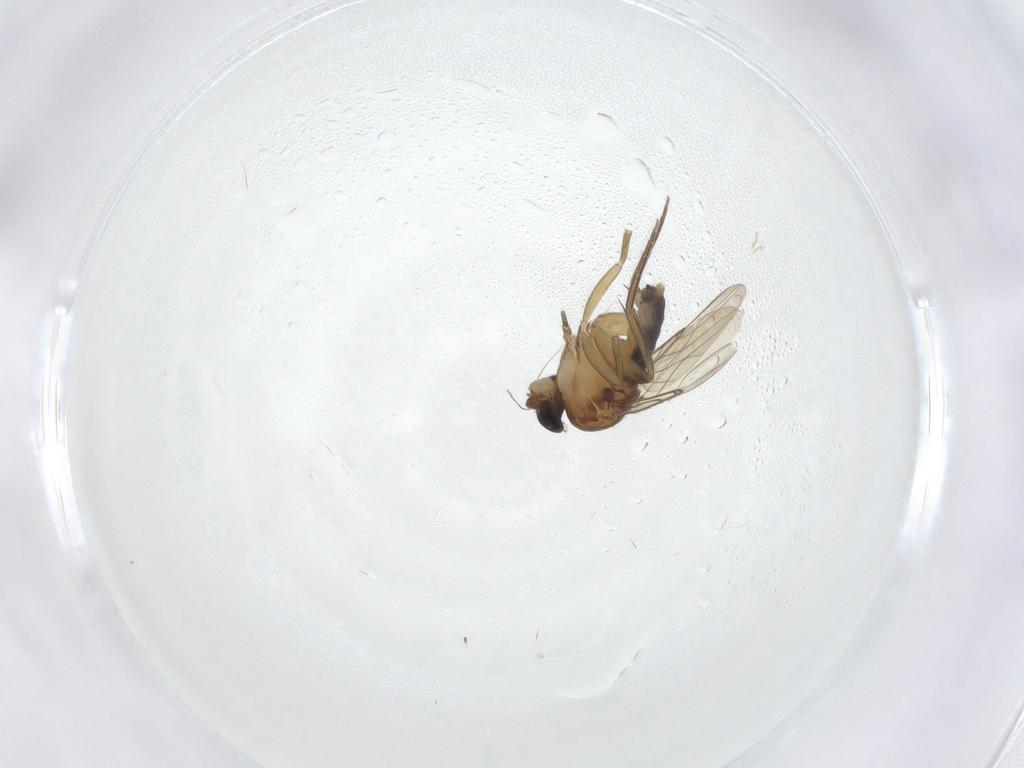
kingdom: Animalia
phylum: Arthropoda
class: Insecta
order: Diptera
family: Phoridae
